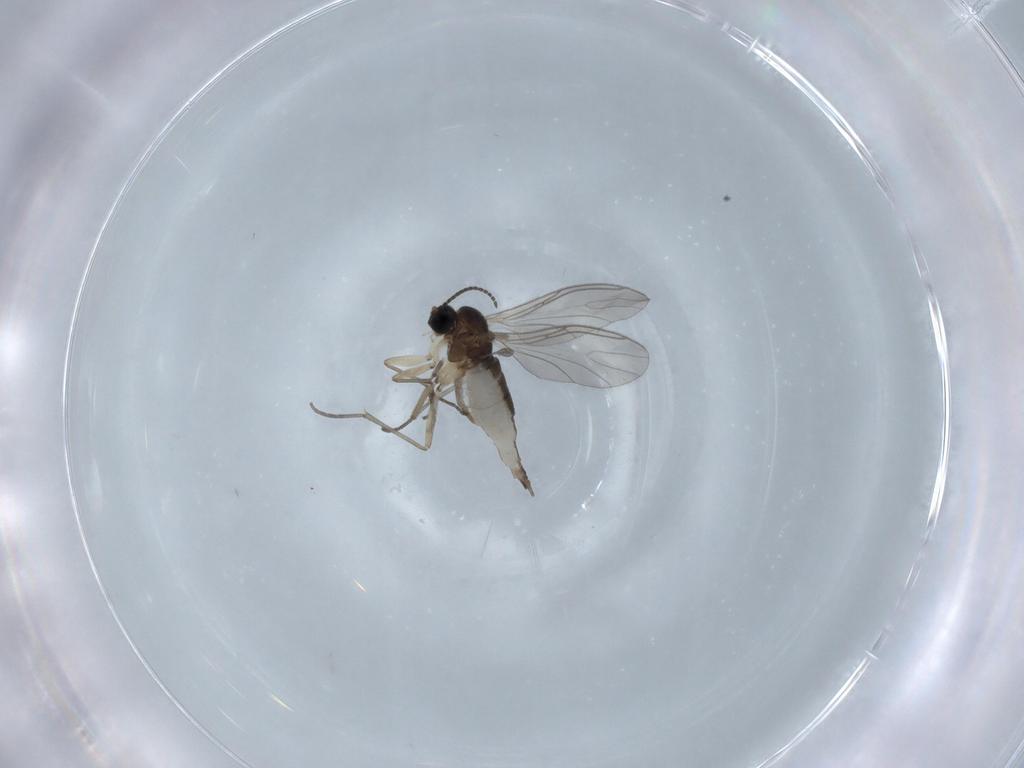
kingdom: Animalia
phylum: Arthropoda
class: Insecta
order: Diptera
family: Sciaridae
